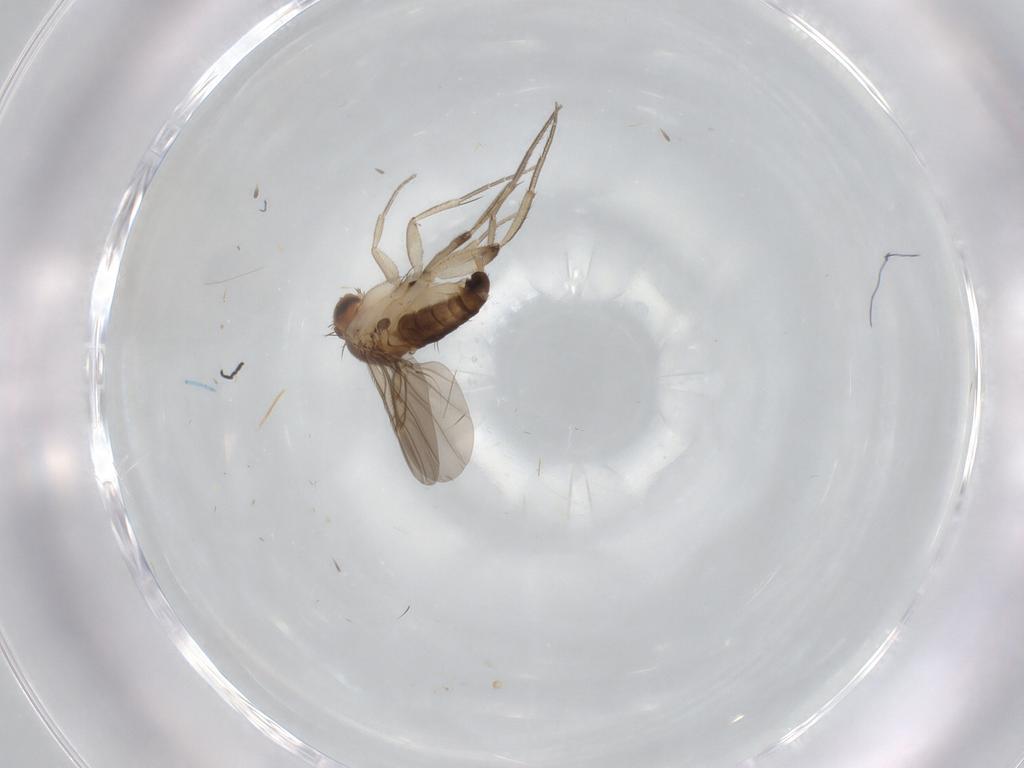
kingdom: Animalia
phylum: Arthropoda
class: Insecta
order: Diptera
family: Phoridae
